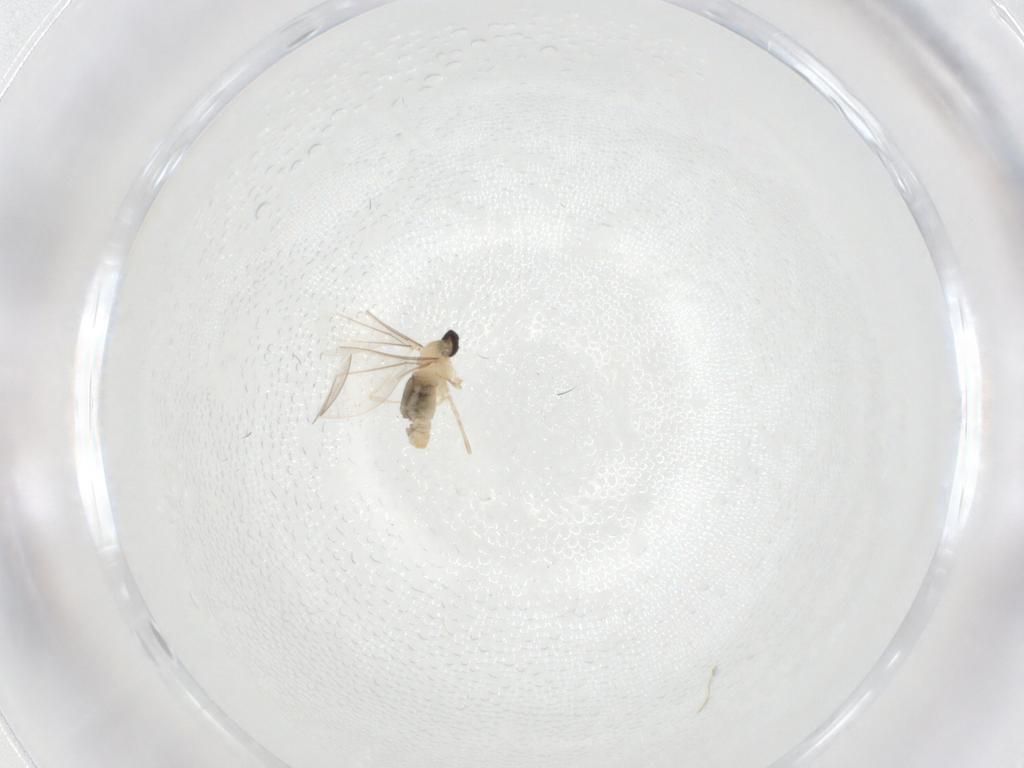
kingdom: Animalia
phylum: Arthropoda
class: Insecta
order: Diptera
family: Cecidomyiidae
